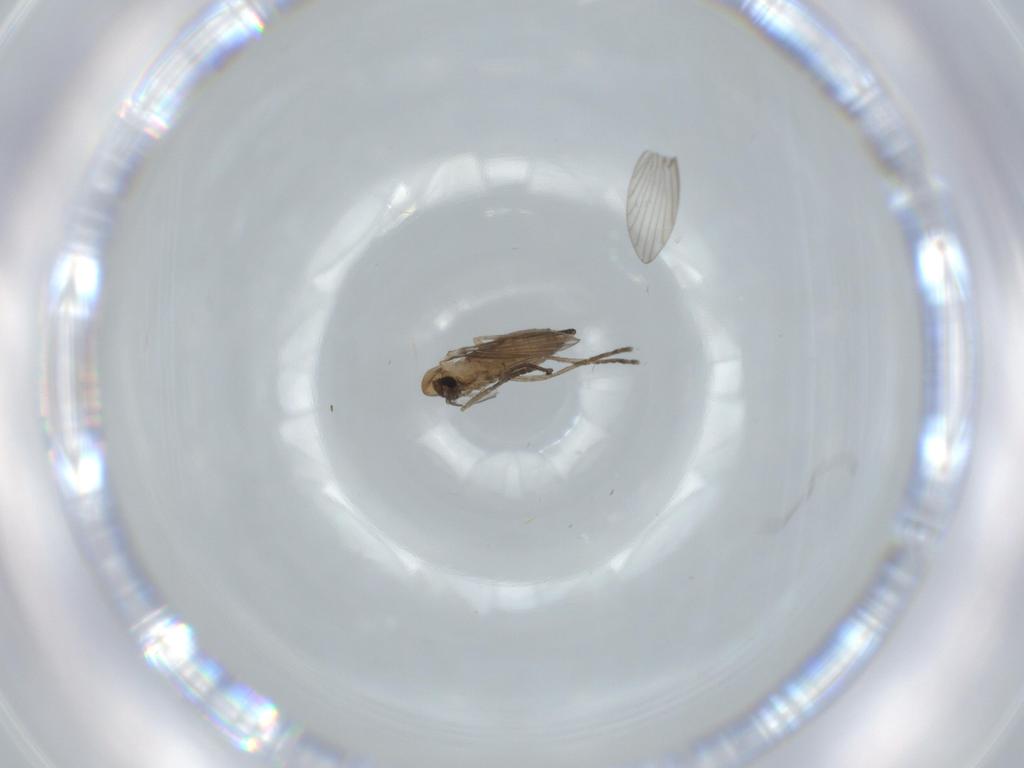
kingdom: Animalia
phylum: Arthropoda
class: Insecta
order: Diptera
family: Psychodidae
